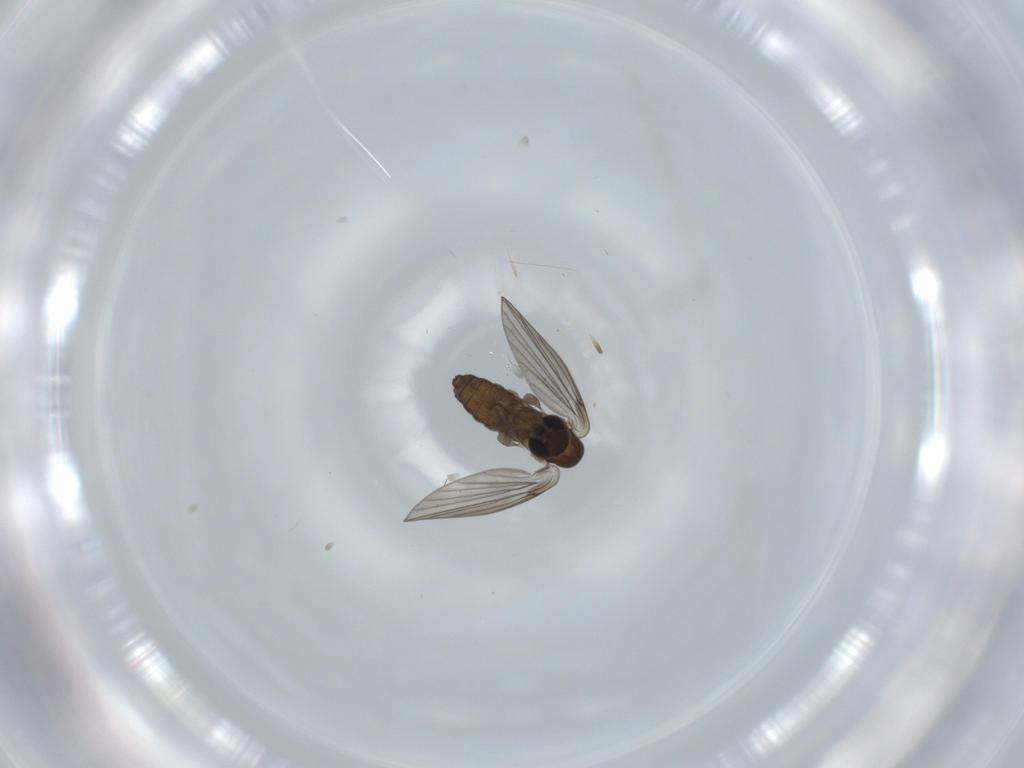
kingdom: Animalia
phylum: Arthropoda
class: Insecta
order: Diptera
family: Psychodidae
